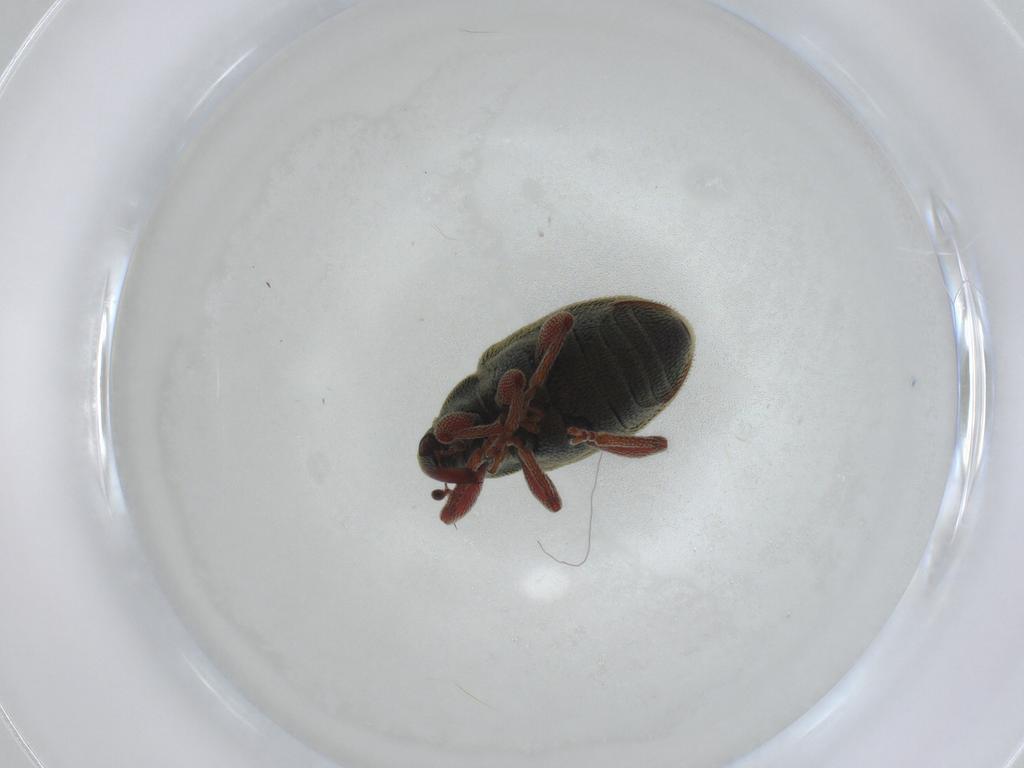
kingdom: Animalia
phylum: Arthropoda
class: Insecta
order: Coleoptera
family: Curculionidae
